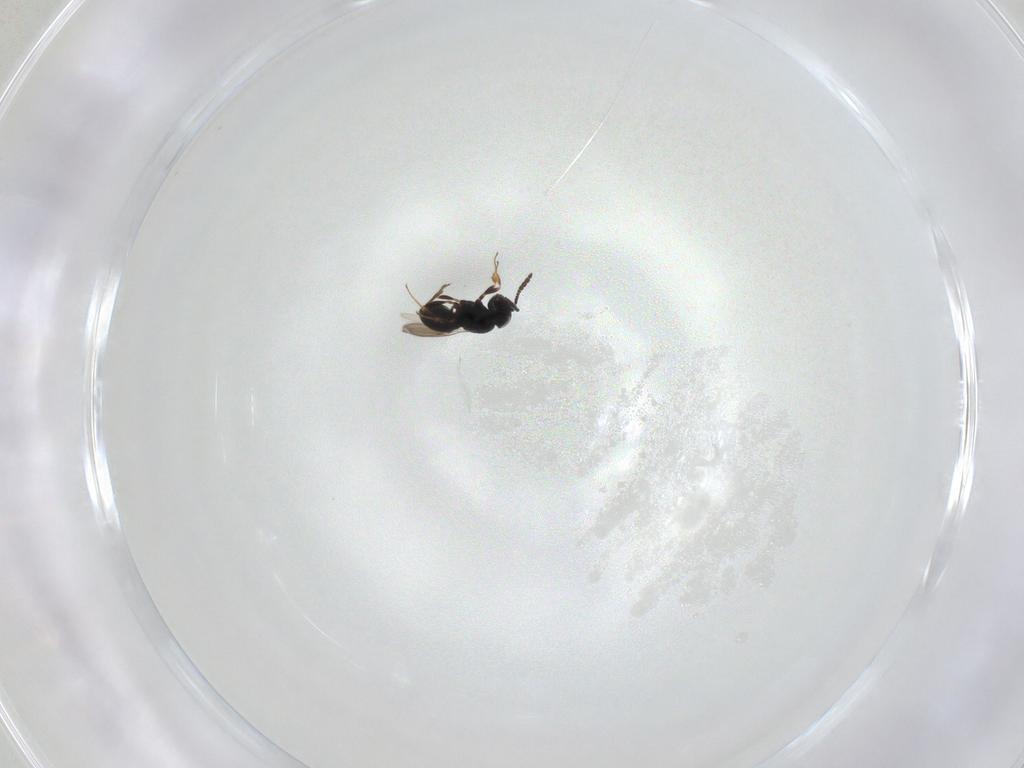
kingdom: Animalia
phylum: Arthropoda
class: Insecta
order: Hymenoptera
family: Scelionidae
